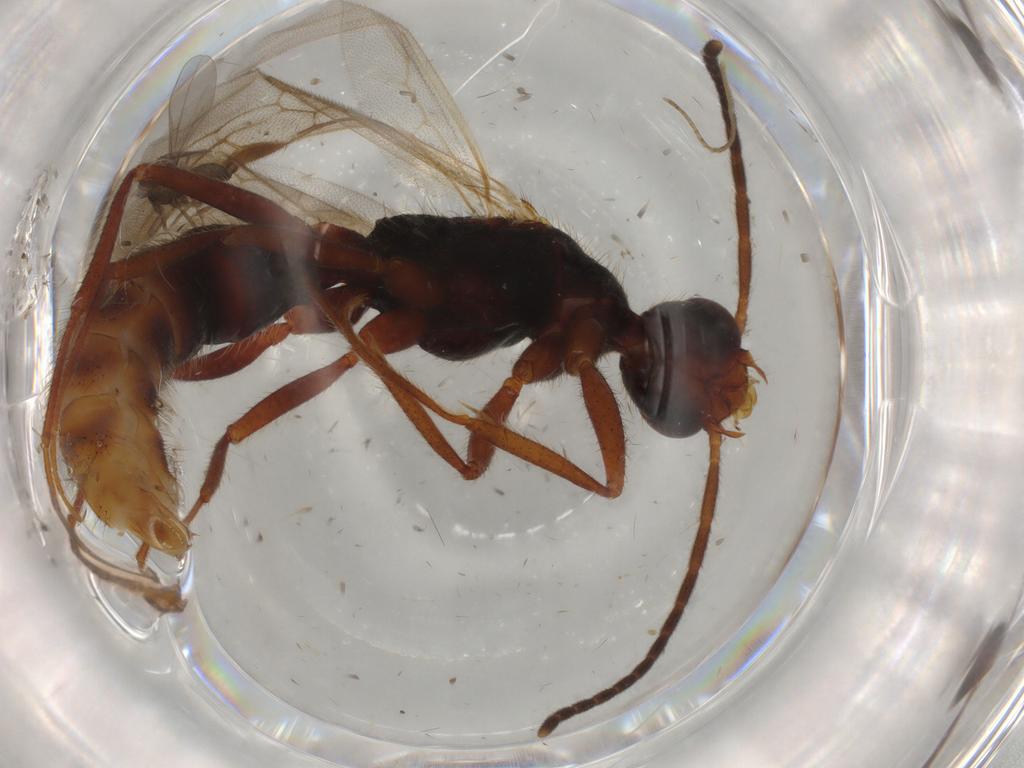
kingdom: Animalia
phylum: Arthropoda
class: Insecta
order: Hymenoptera
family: Formicidae
